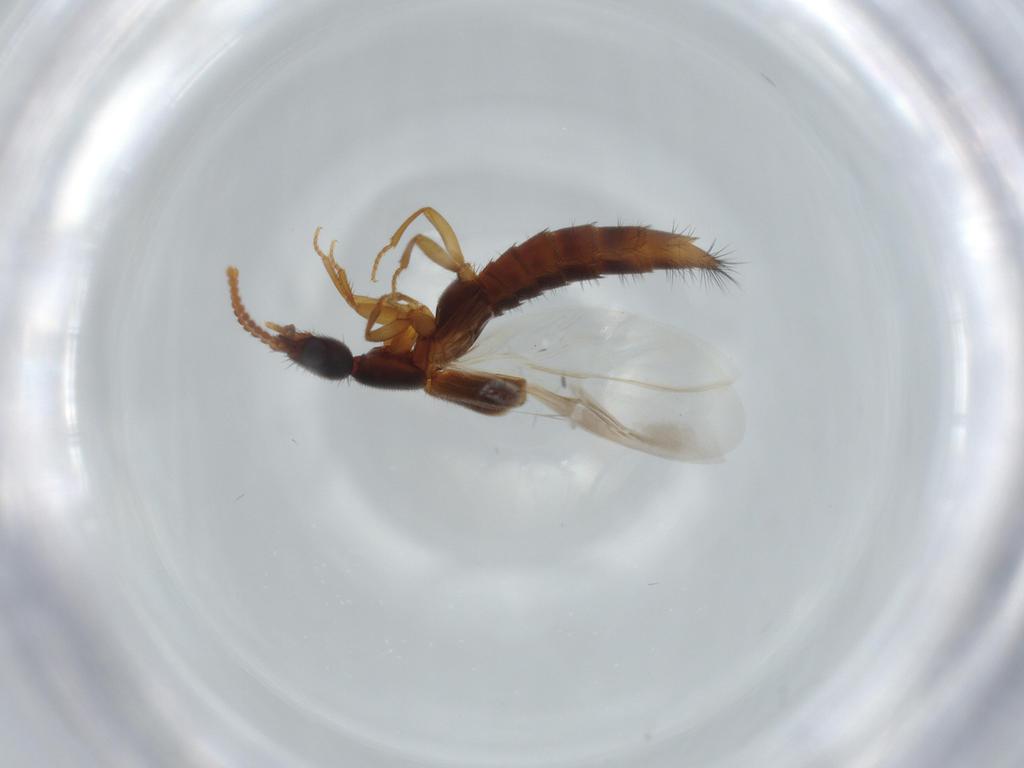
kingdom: Animalia
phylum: Arthropoda
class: Insecta
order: Coleoptera
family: Staphylinidae
